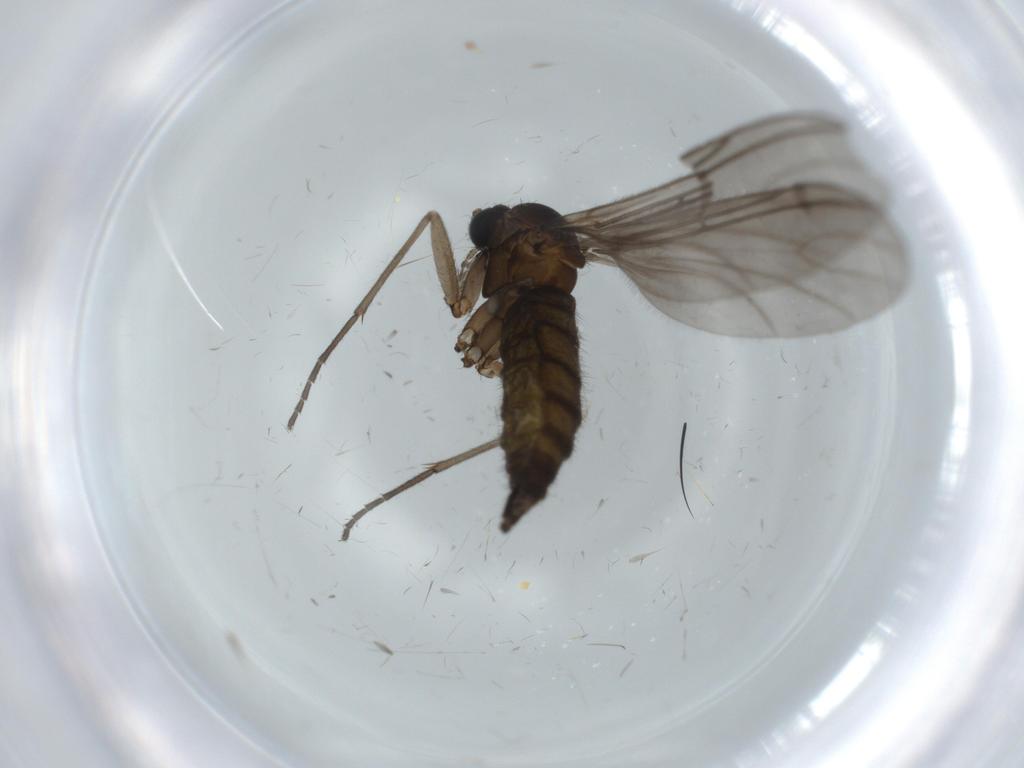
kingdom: Animalia
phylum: Arthropoda
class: Insecta
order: Diptera
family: Sciaridae
